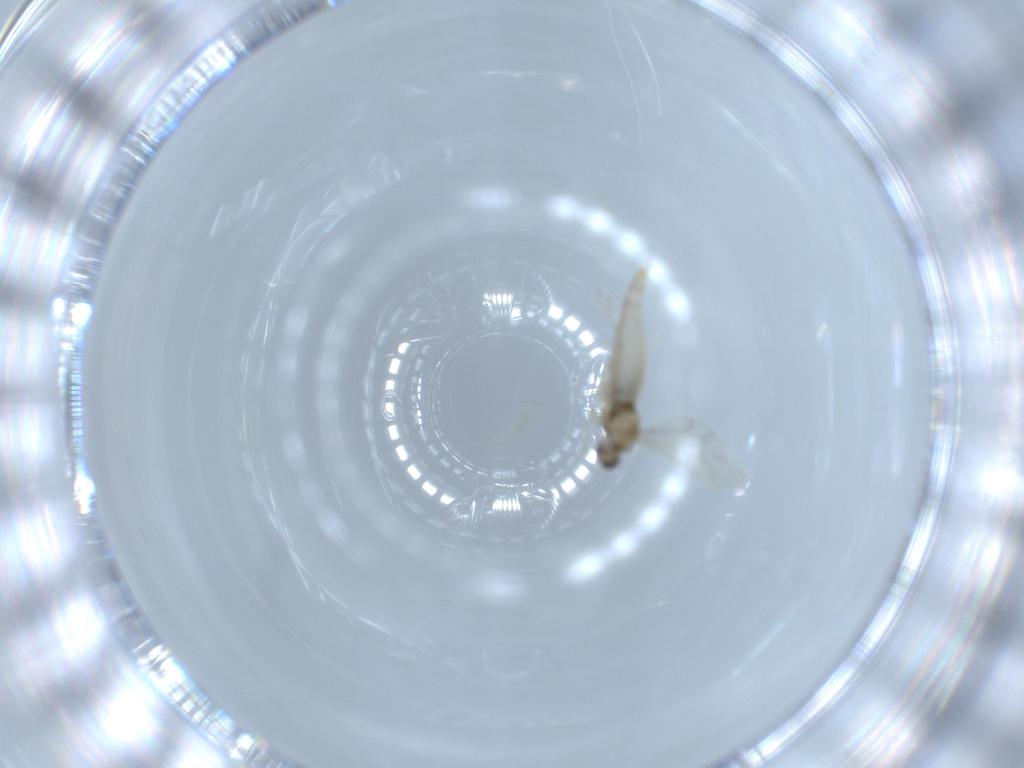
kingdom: Animalia
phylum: Arthropoda
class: Insecta
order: Diptera
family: Cecidomyiidae
